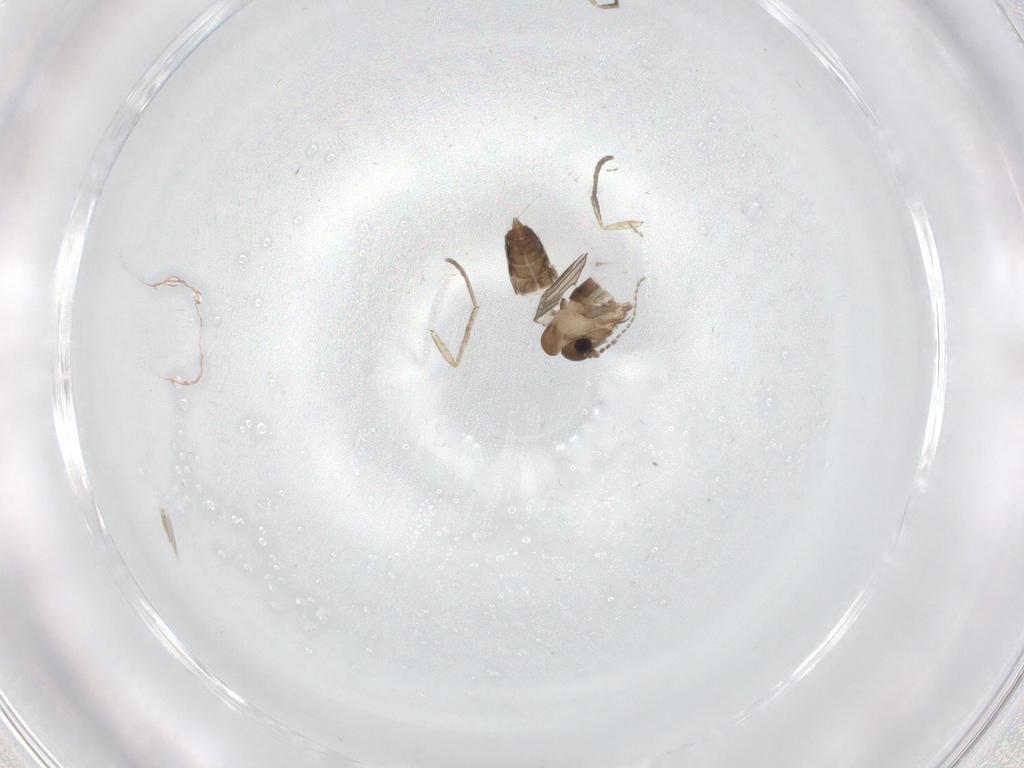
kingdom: Animalia
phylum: Arthropoda
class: Insecta
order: Diptera
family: Psychodidae
